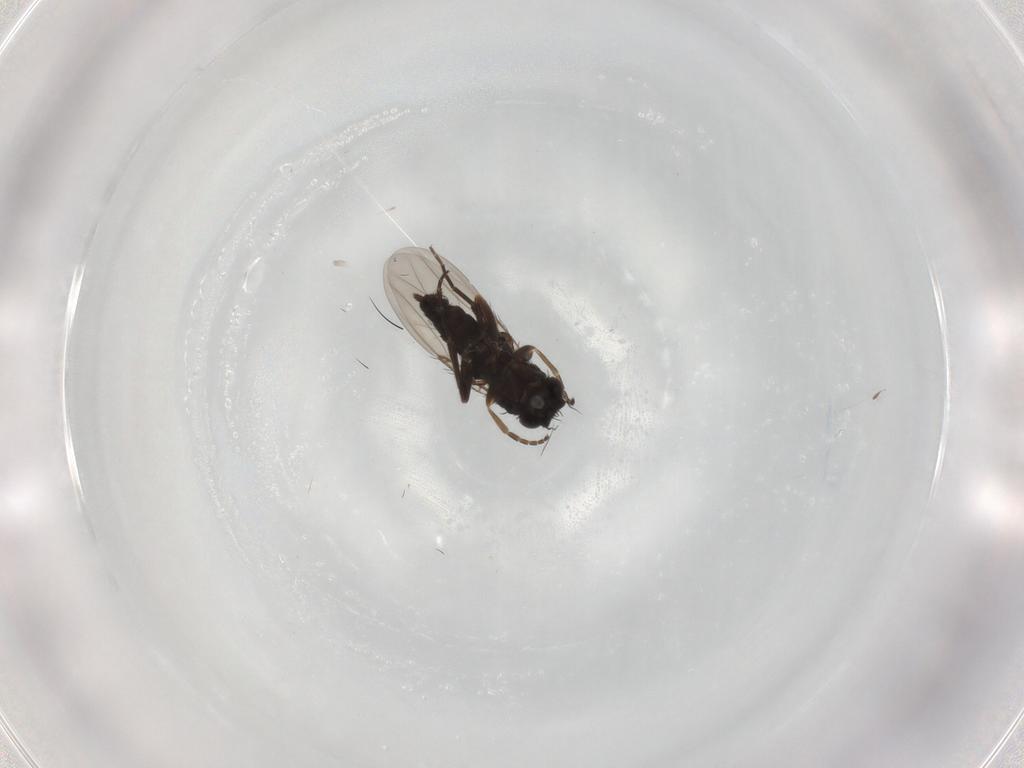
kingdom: Animalia
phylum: Arthropoda
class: Insecta
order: Diptera
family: Phoridae
